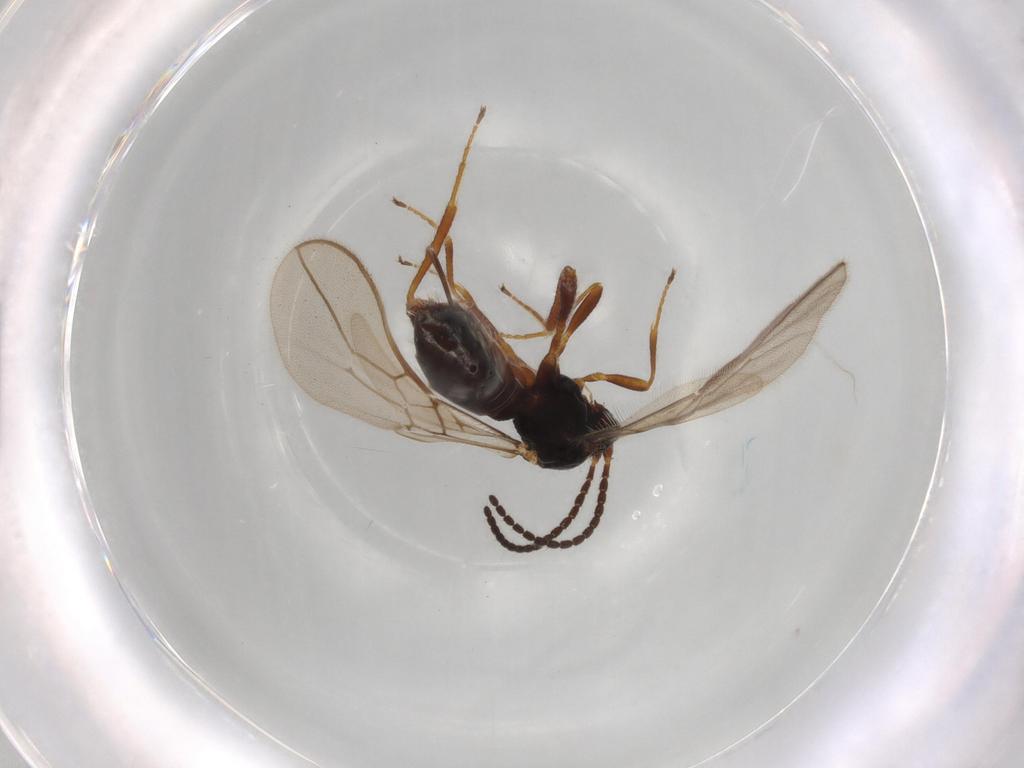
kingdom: Animalia
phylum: Arthropoda
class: Insecta
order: Hymenoptera
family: Braconidae
